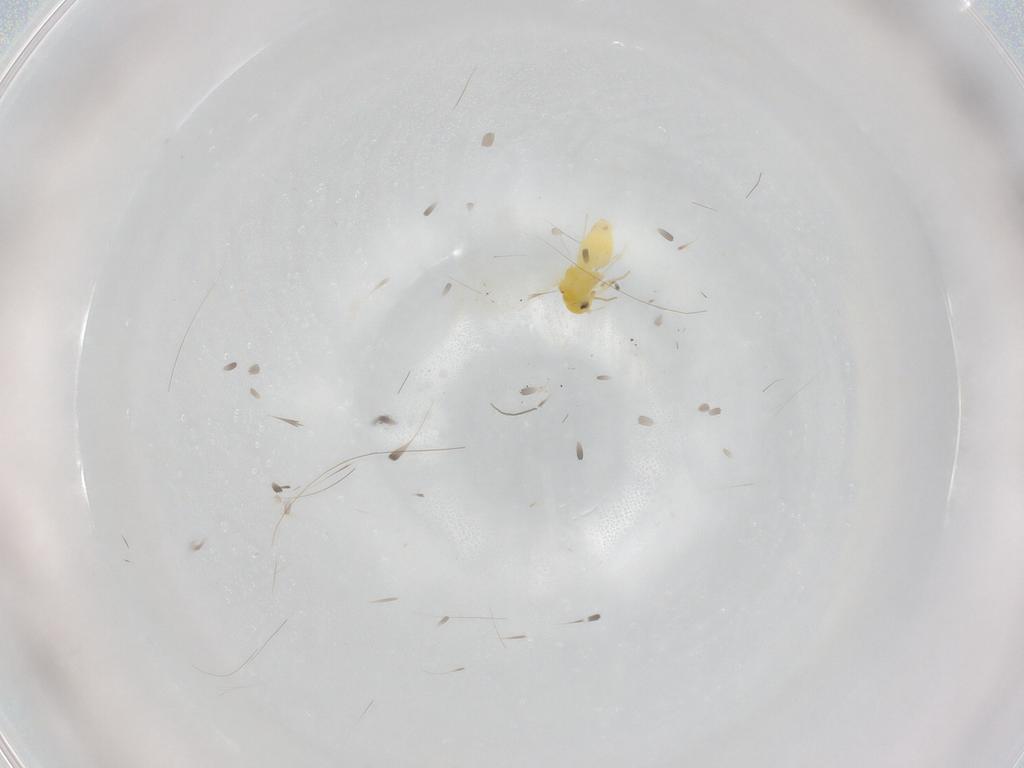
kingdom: Animalia
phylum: Arthropoda
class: Insecta
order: Hemiptera
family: Aleyrodidae
